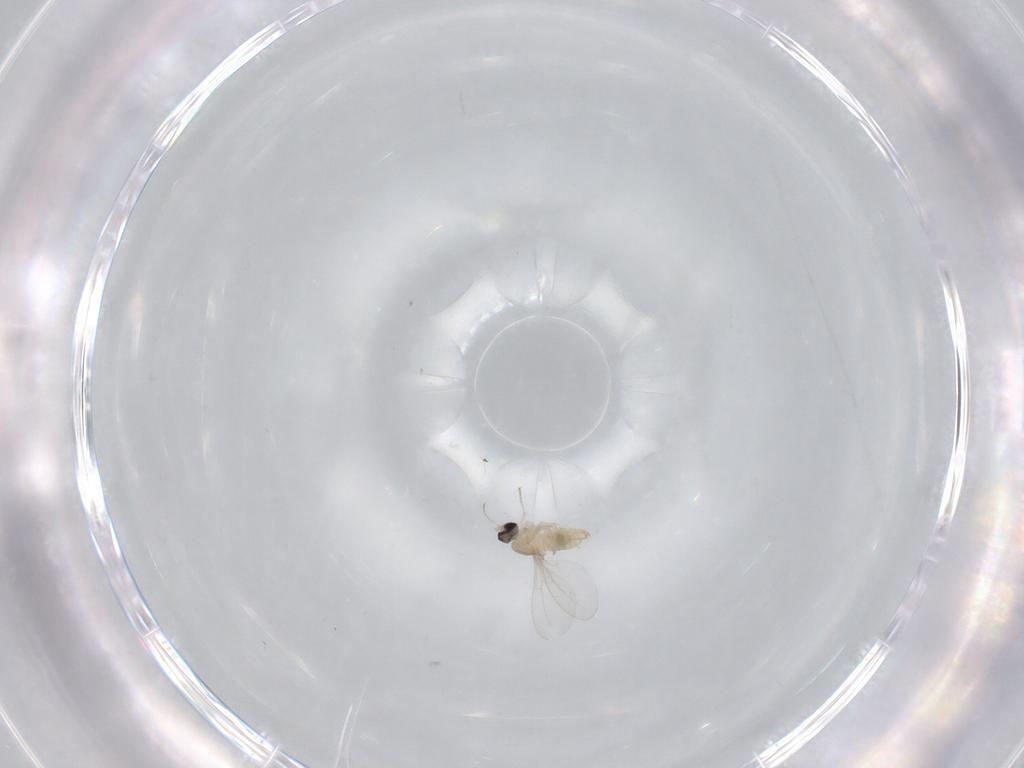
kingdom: Animalia
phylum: Arthropoda
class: Insecta
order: Diptera
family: Cecidomyiidae
